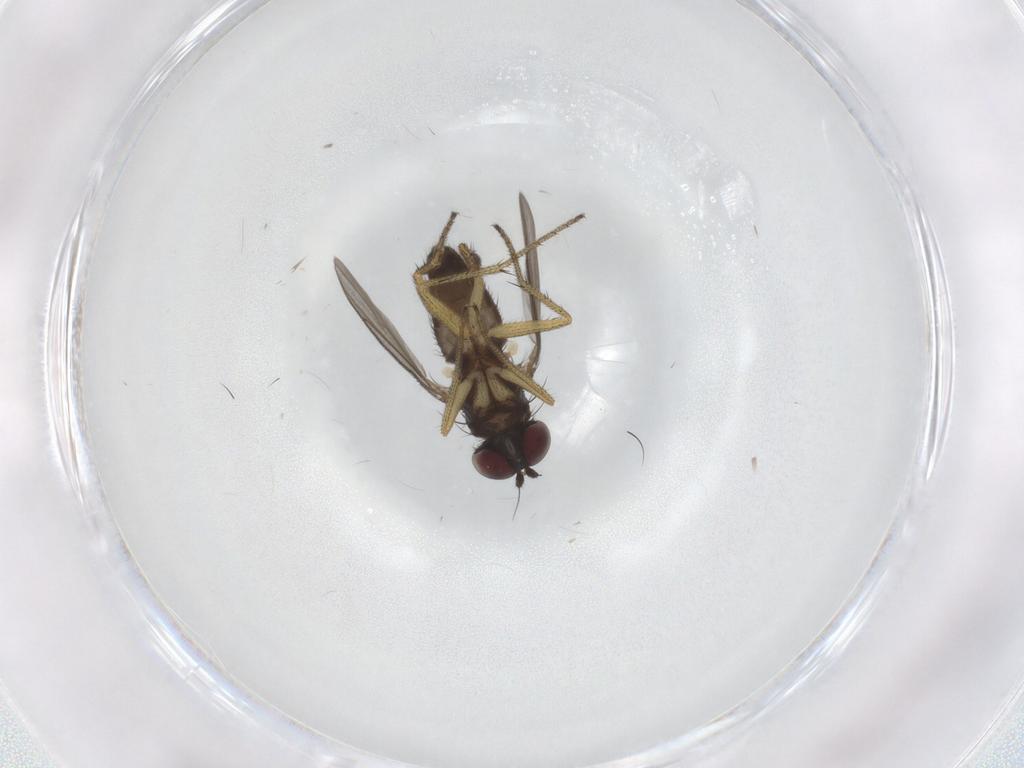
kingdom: Animalia
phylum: Arthropoda
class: Insecta
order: Diptera
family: Dolichopodidae
